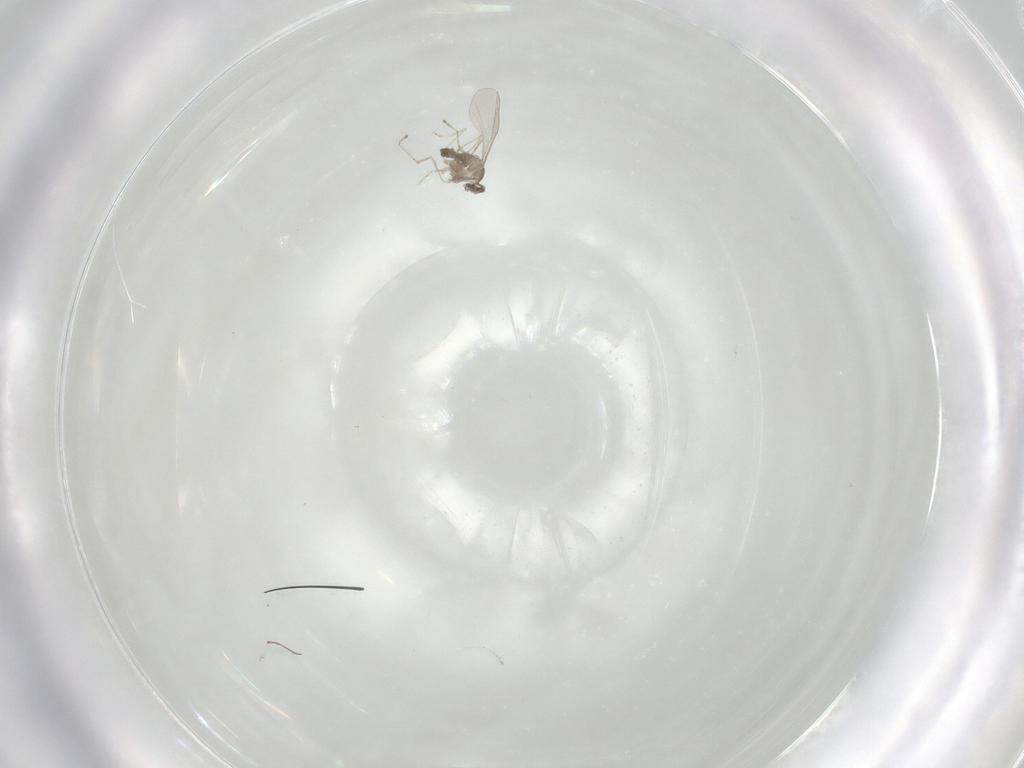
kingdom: Animalia
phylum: Arthropoda
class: Insecta
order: Diptera
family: Cecidomyiidae
